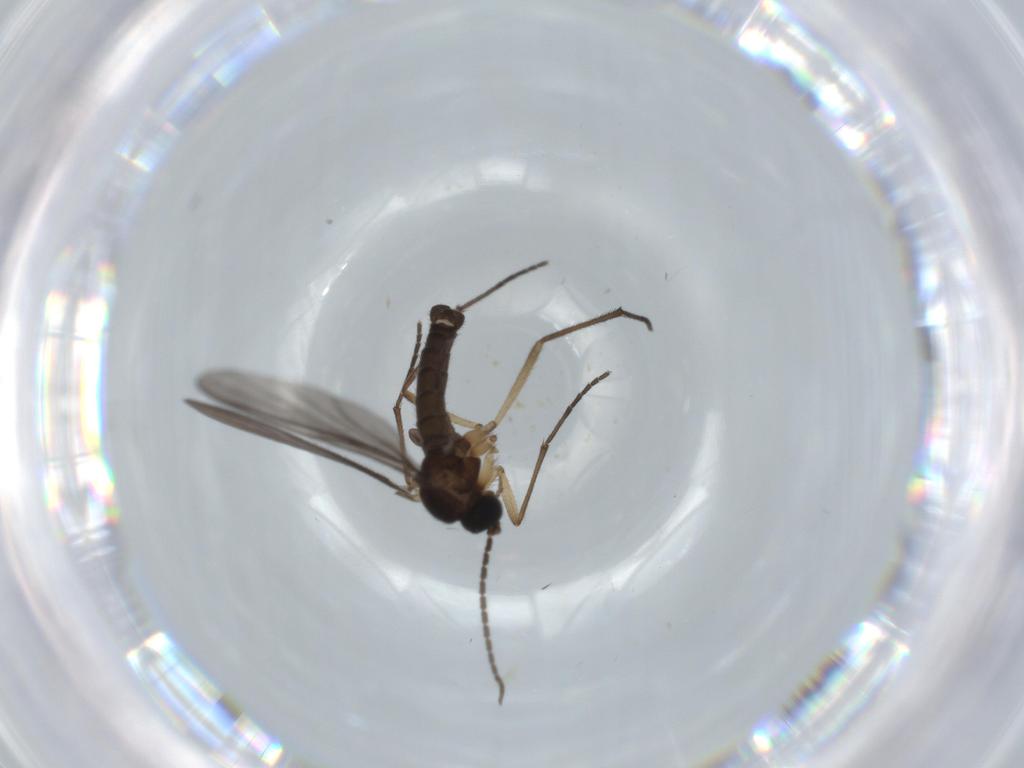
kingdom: Animalia
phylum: Arthropoda
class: Insecta
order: Diptera
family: Sciaridae
